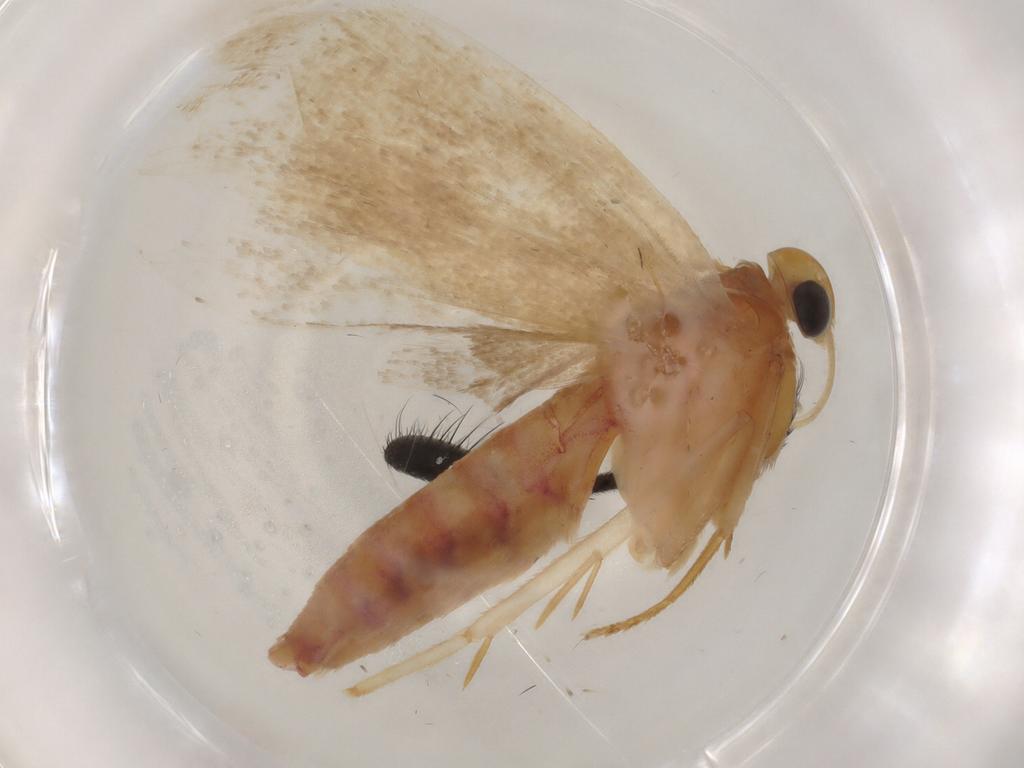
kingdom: Animalia
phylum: Arthropoda
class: Insecta
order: Lepidoptera
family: Autostichidae
